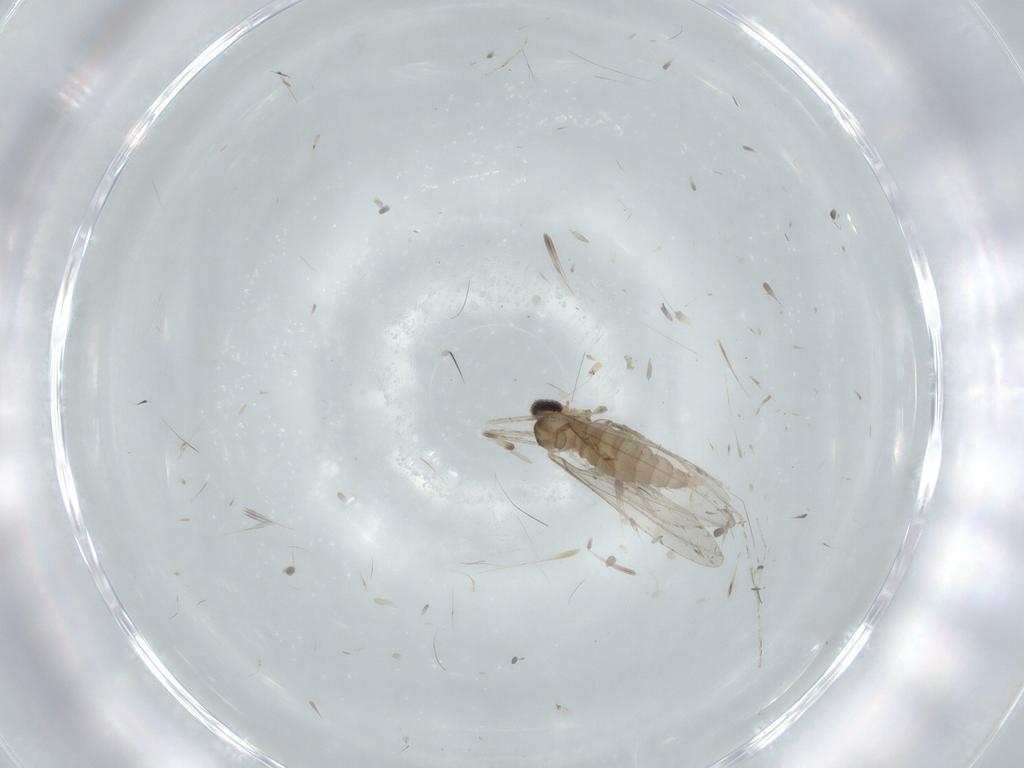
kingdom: Animalia
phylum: Arthropoda
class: Insecta
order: Diptera
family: Cecidomyiidae
